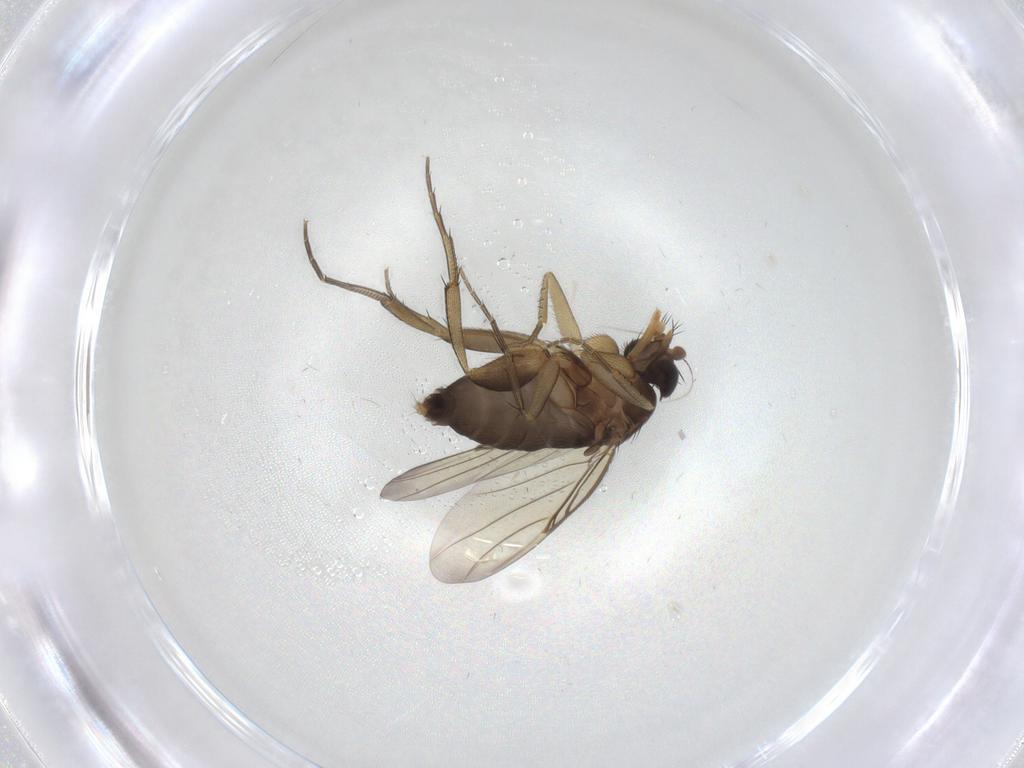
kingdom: Animalia
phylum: Arthropoda
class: Insecta
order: Diptera
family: Phoridae
